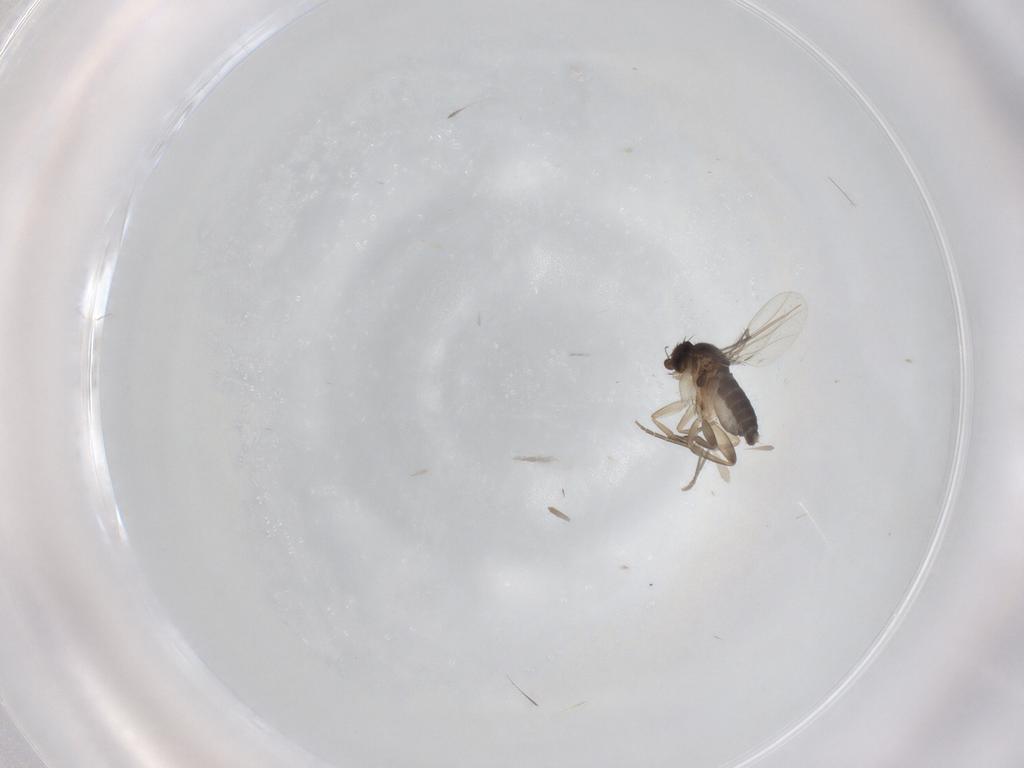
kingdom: Animalia
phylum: Arthropoda
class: Insecta
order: Diptera
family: Phoridae
